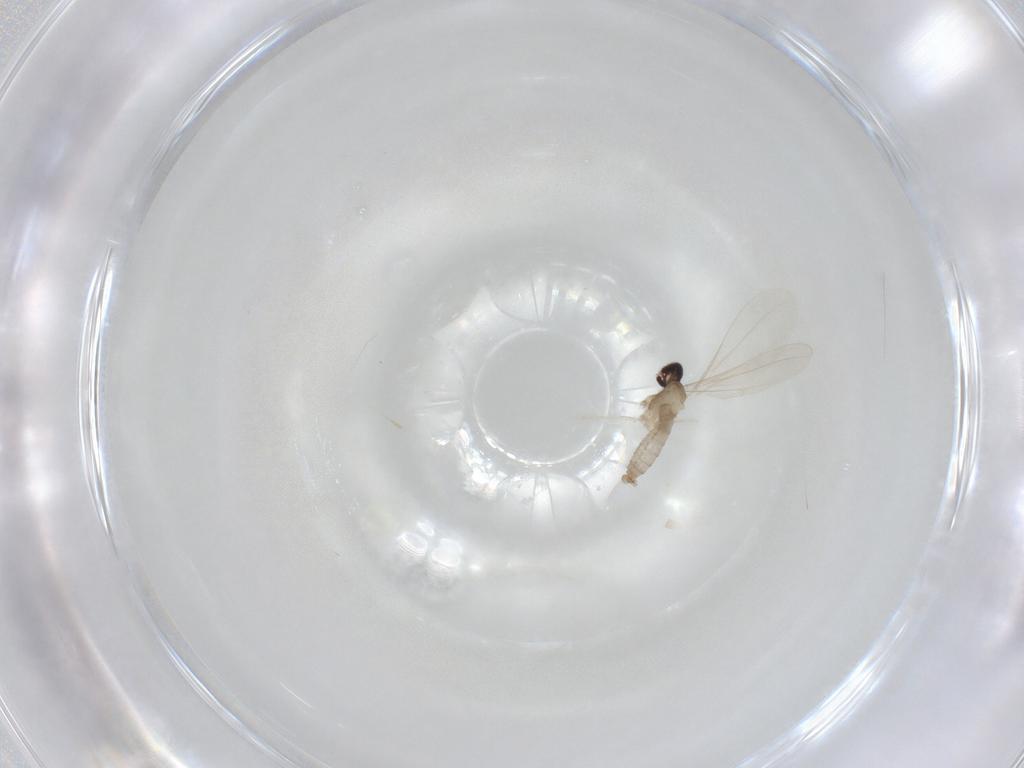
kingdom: Animalia
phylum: Arthropoda
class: Insecta
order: Diptera
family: Cecidomyiidae
